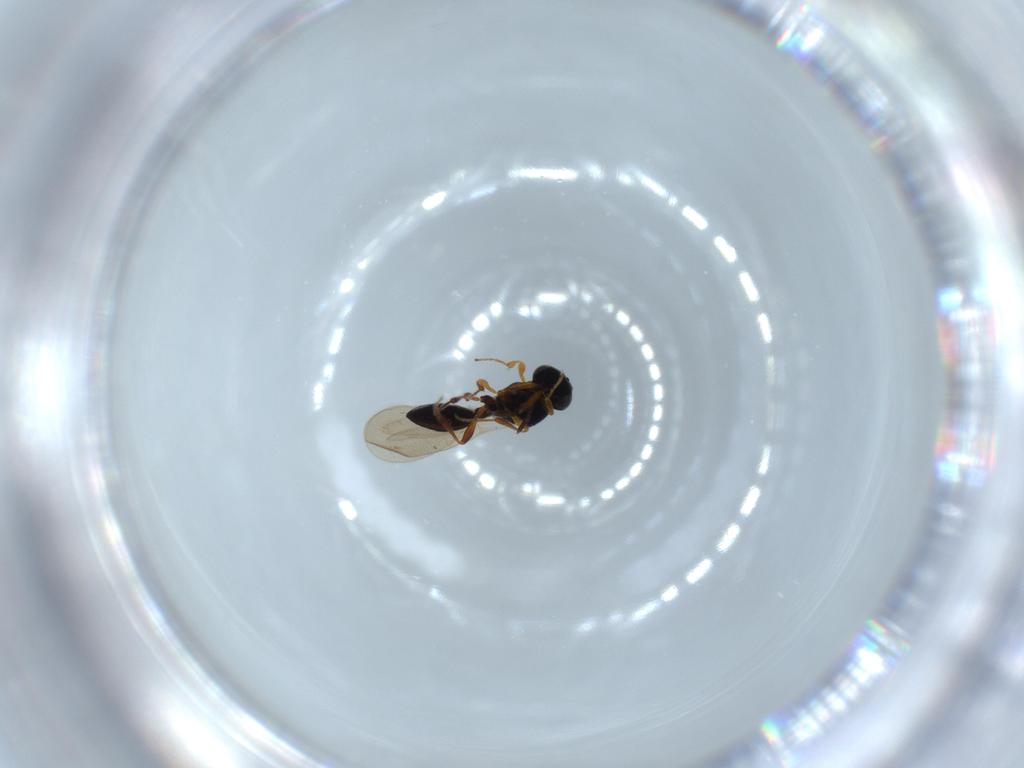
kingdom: Animalia
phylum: Arthropoda
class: Insecta
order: Hymenoptera
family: Platygastridae
